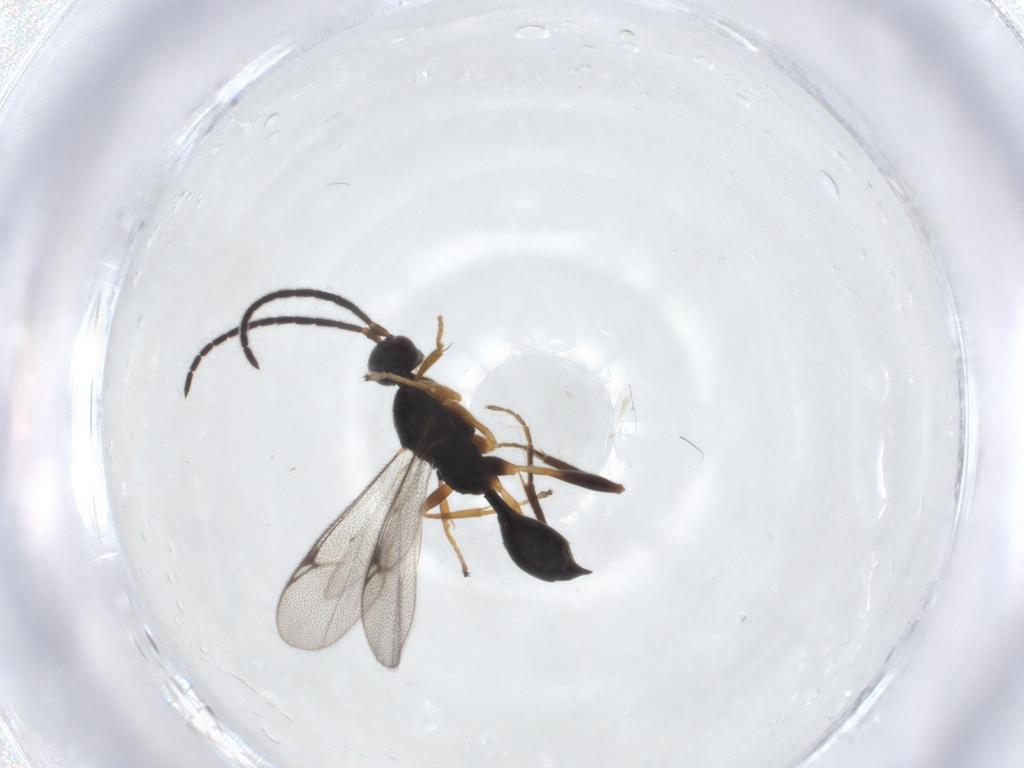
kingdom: Animalia
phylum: Arthropoda
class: Insecta
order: Hymenoptera
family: Proctotrupidae
